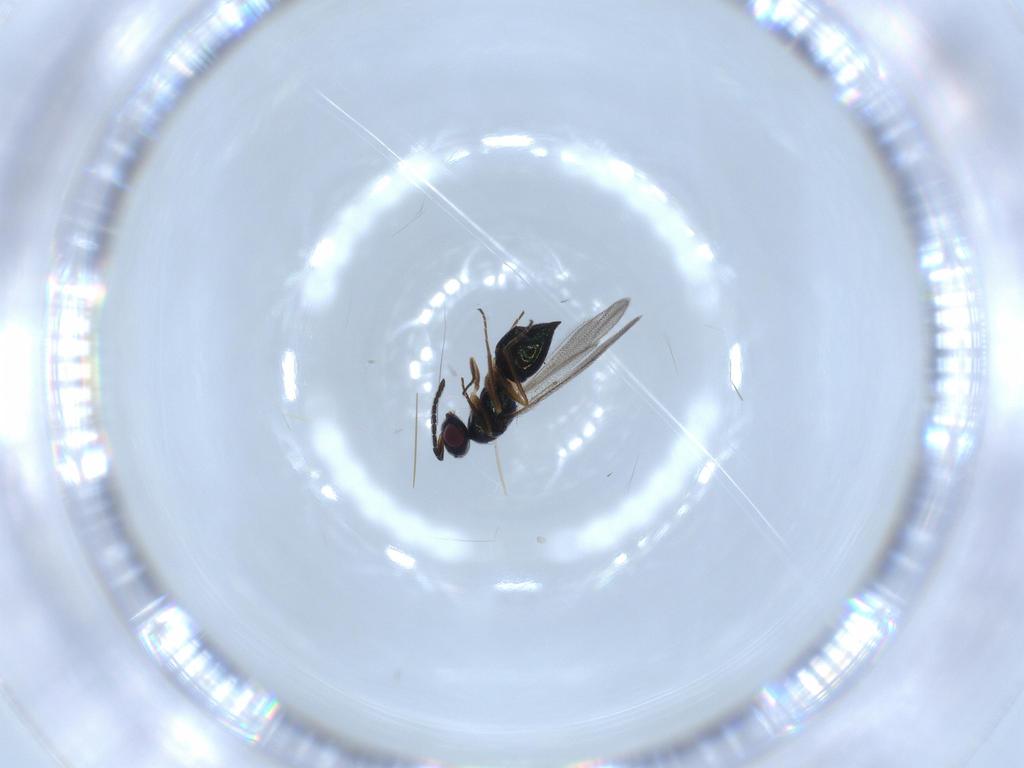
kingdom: Animalia
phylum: Arthropoda
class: Insecta
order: Hymenoptera
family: Pompilidae
